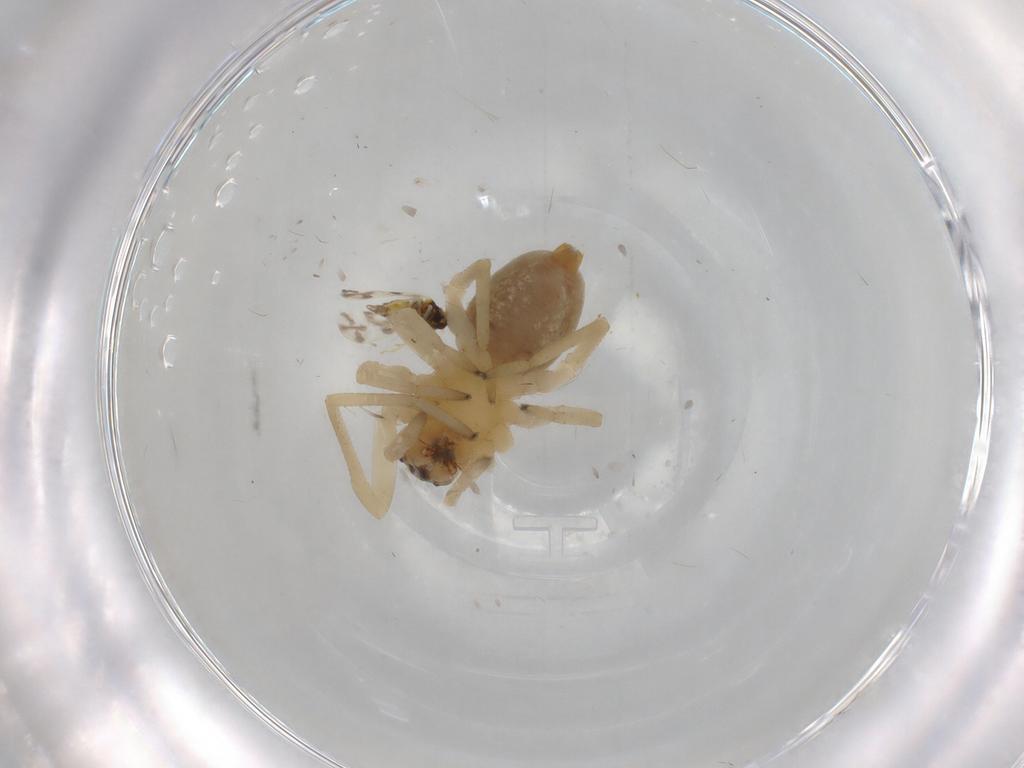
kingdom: Animalia
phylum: Arthropoda
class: Arachnida
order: Araneae
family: Cheiracanthiidae
